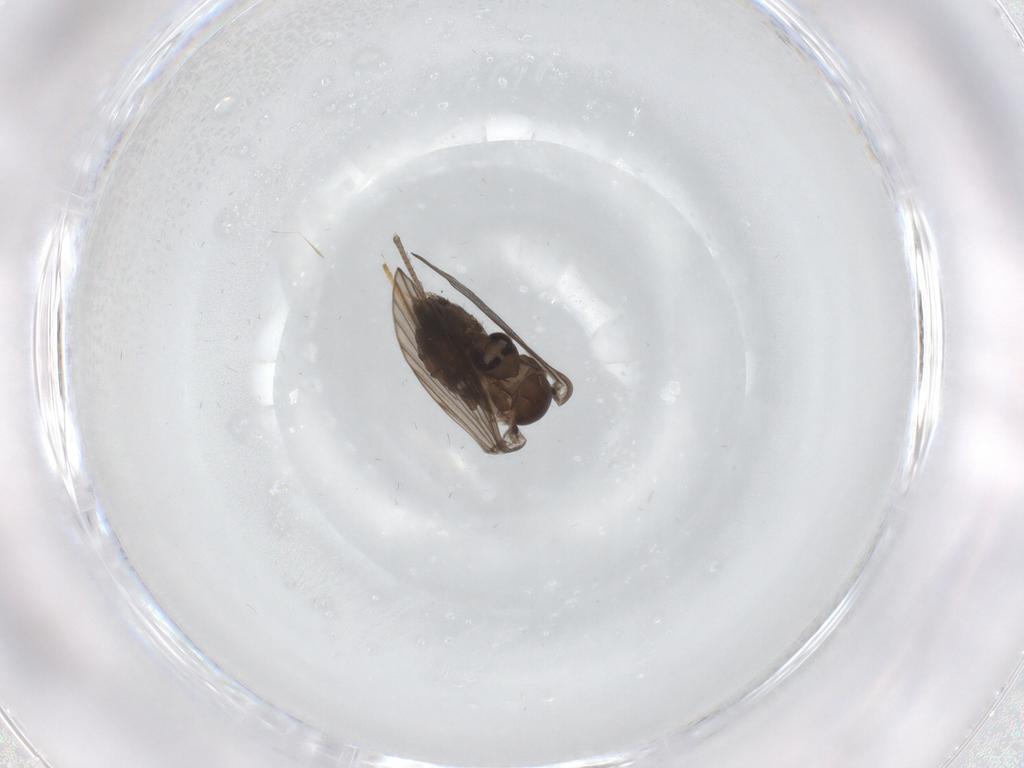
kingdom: Animalia
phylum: Arthropoda
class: Insecta
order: Diptera
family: Psychodidae
